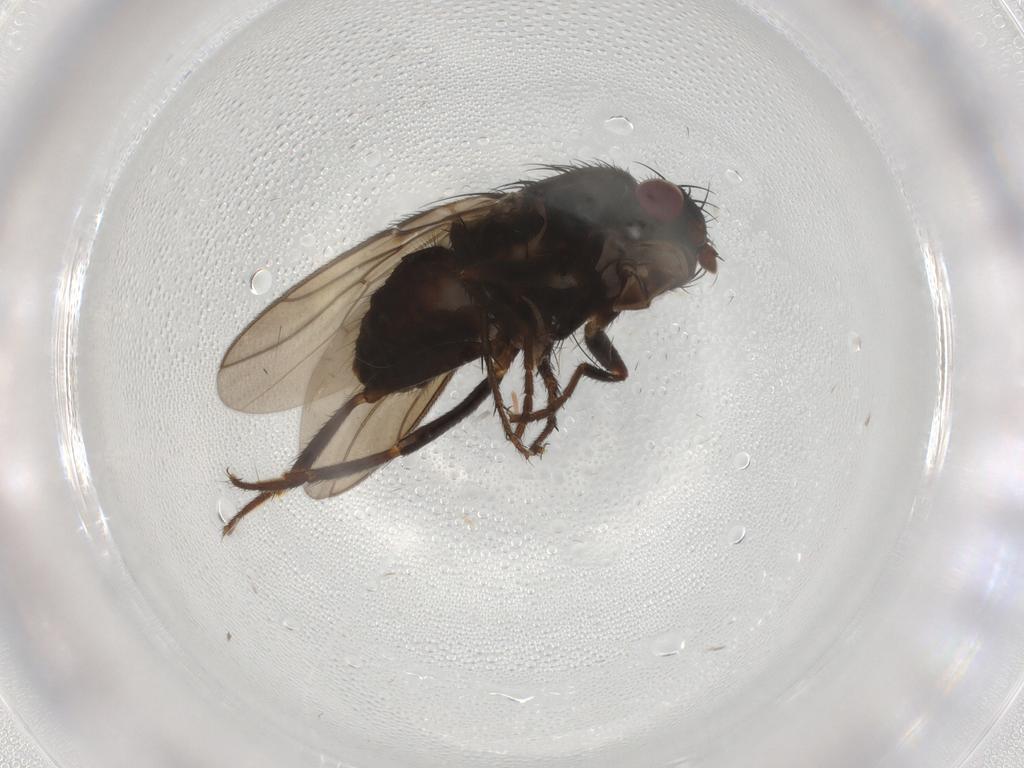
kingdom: Animalia
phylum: Arthropoda
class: Insecta
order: Diptera
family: Sphaeroceridae
